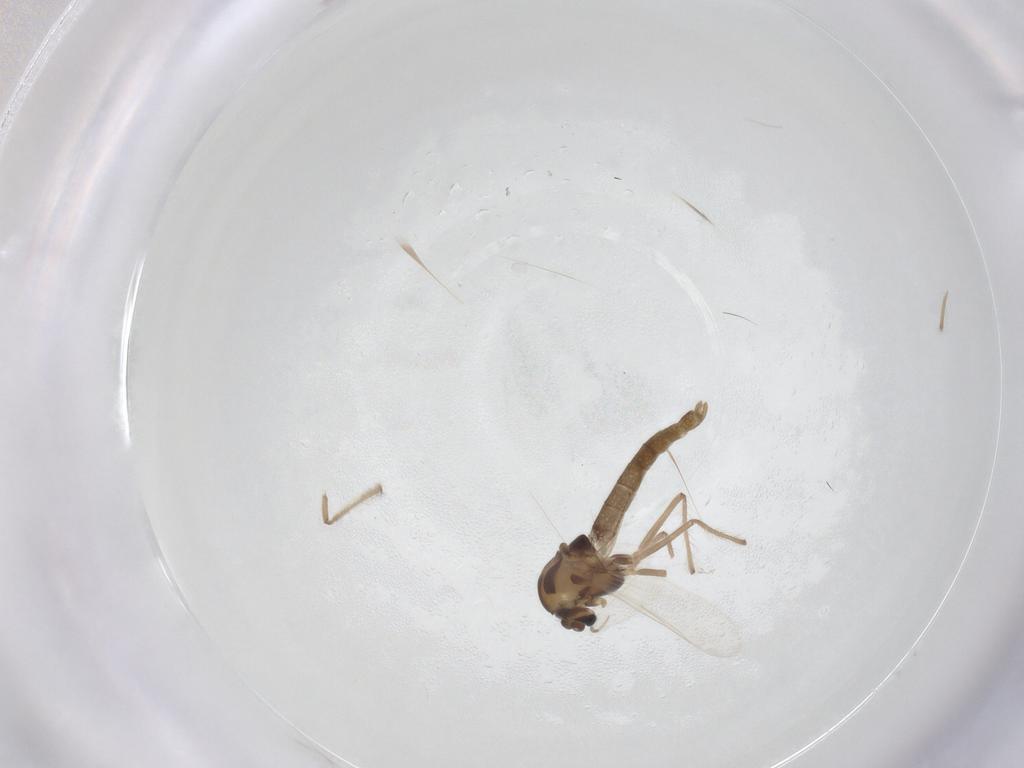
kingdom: Animalia
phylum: Arthropoda
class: Insecta
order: Diptera
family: Chironomidae
